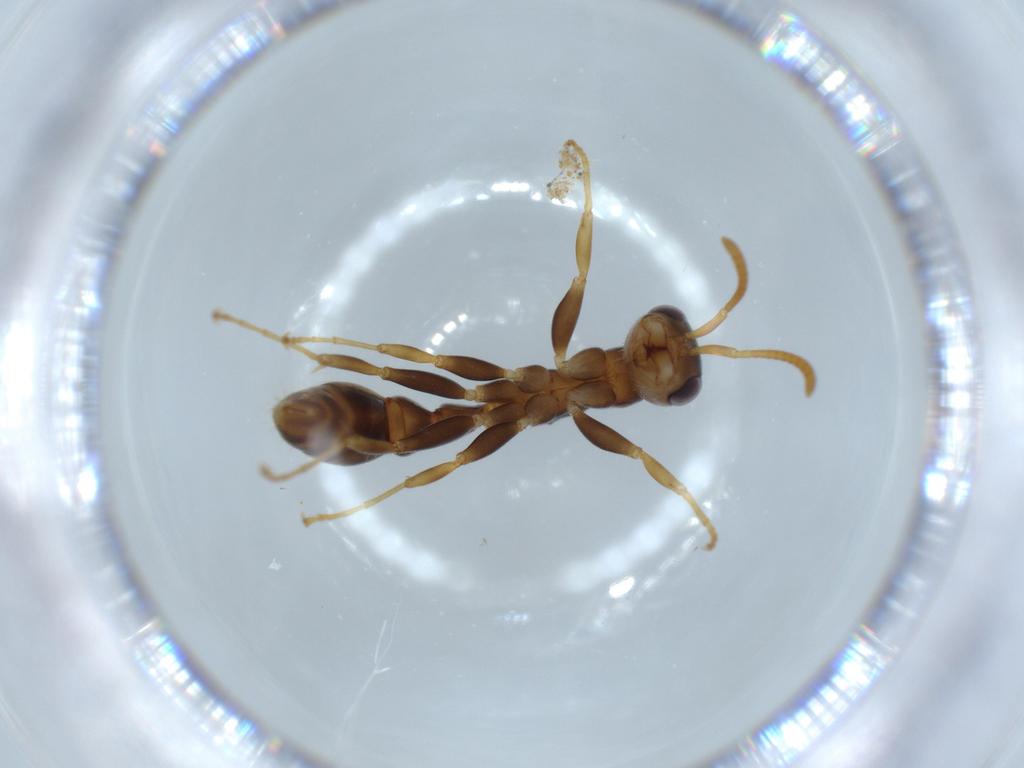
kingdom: Animalia
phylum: Arthropoda
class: Insecta
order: Hymenoptera
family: Formicidae
